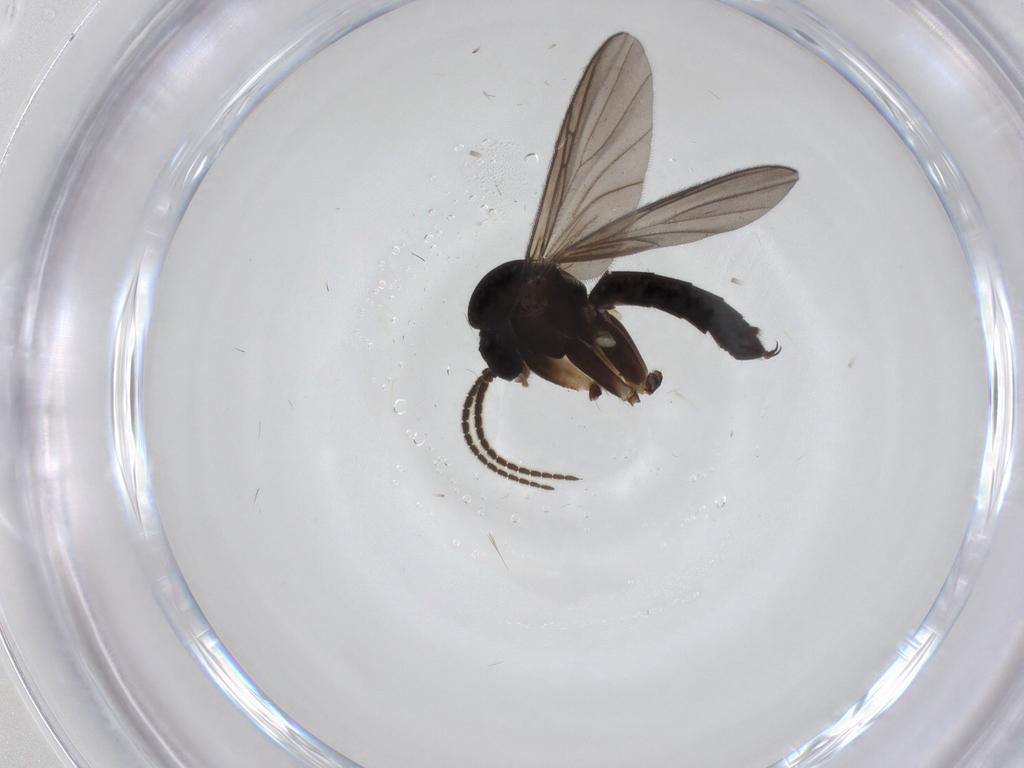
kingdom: Animalia
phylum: Arthropoda
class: Insecta
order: Diptera
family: Mycetophilidae
